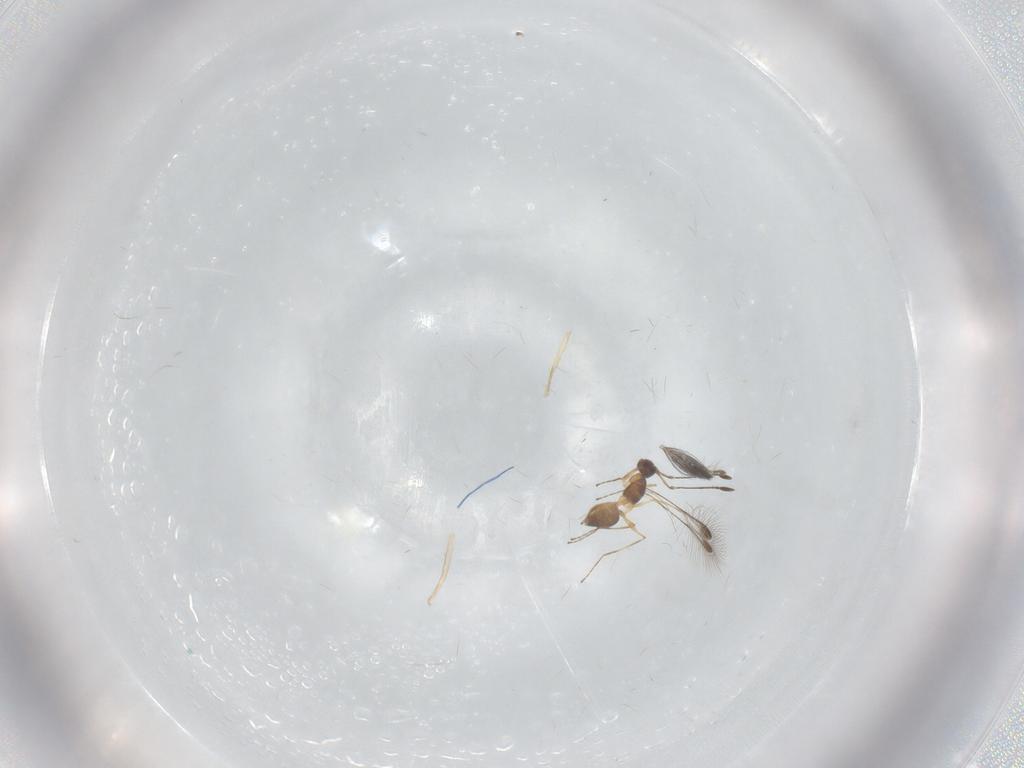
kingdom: Animalia
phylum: Arthropoda
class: Insecta
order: Hymenoptera
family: Mymaridae
